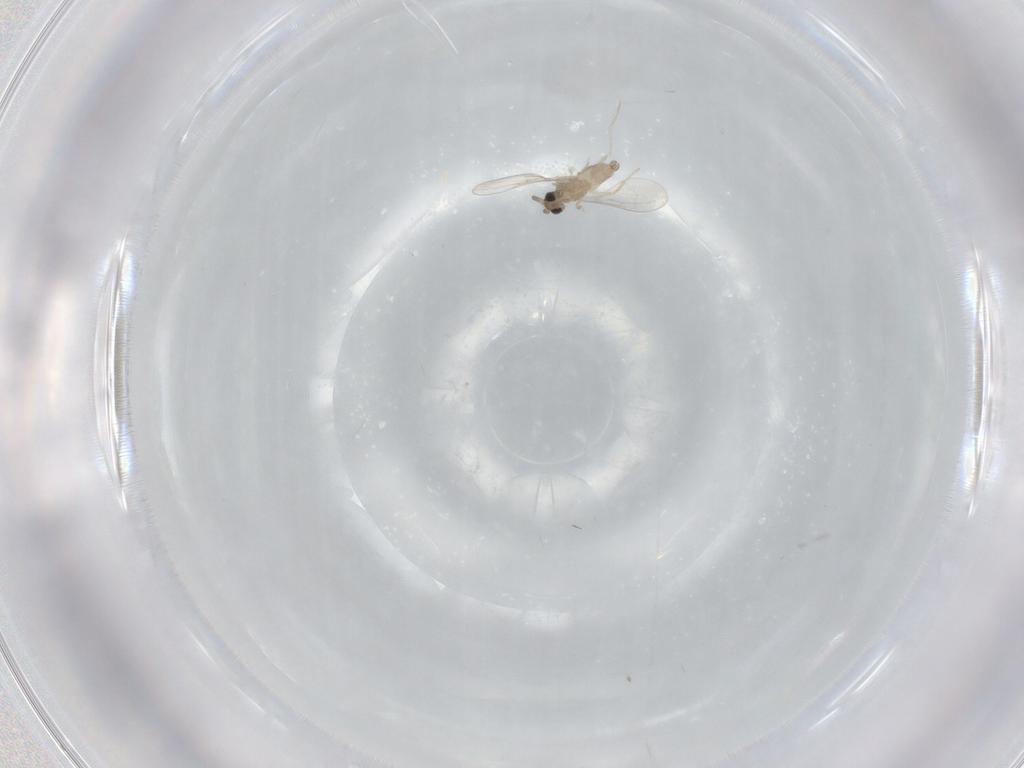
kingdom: Animalia
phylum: Arthropoda
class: Insecta
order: Diptera
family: Cecidomyiidae
